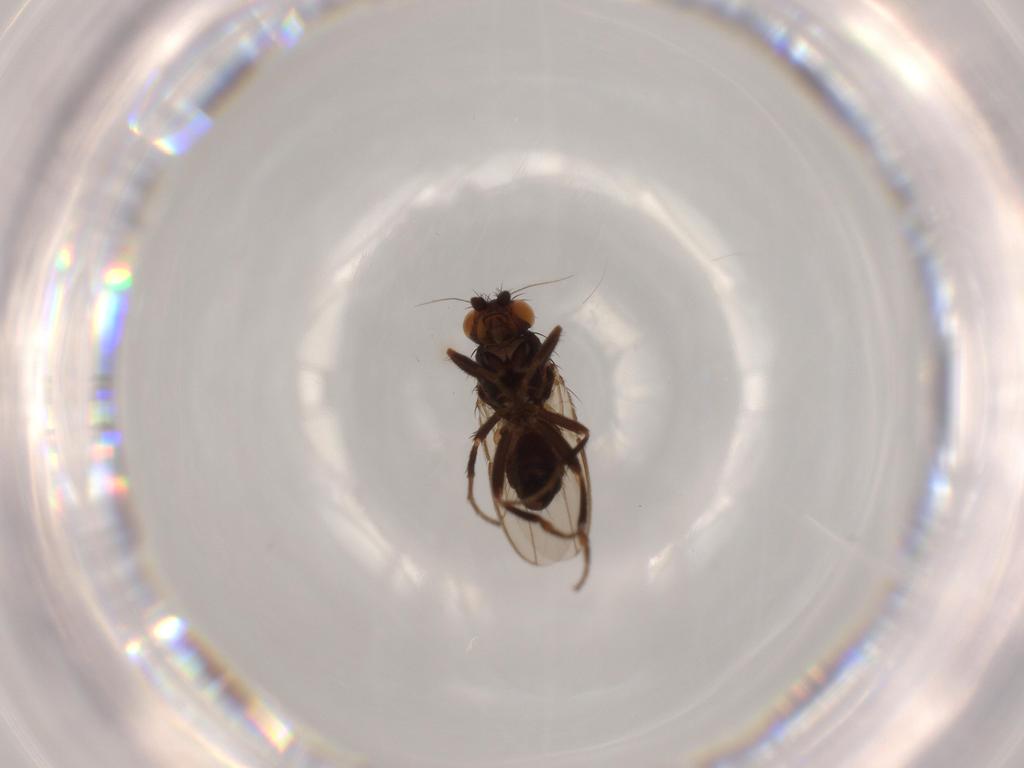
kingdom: Animalia
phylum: Arthropoda
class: Insecta
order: Diptera
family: Sphaeroceridae
